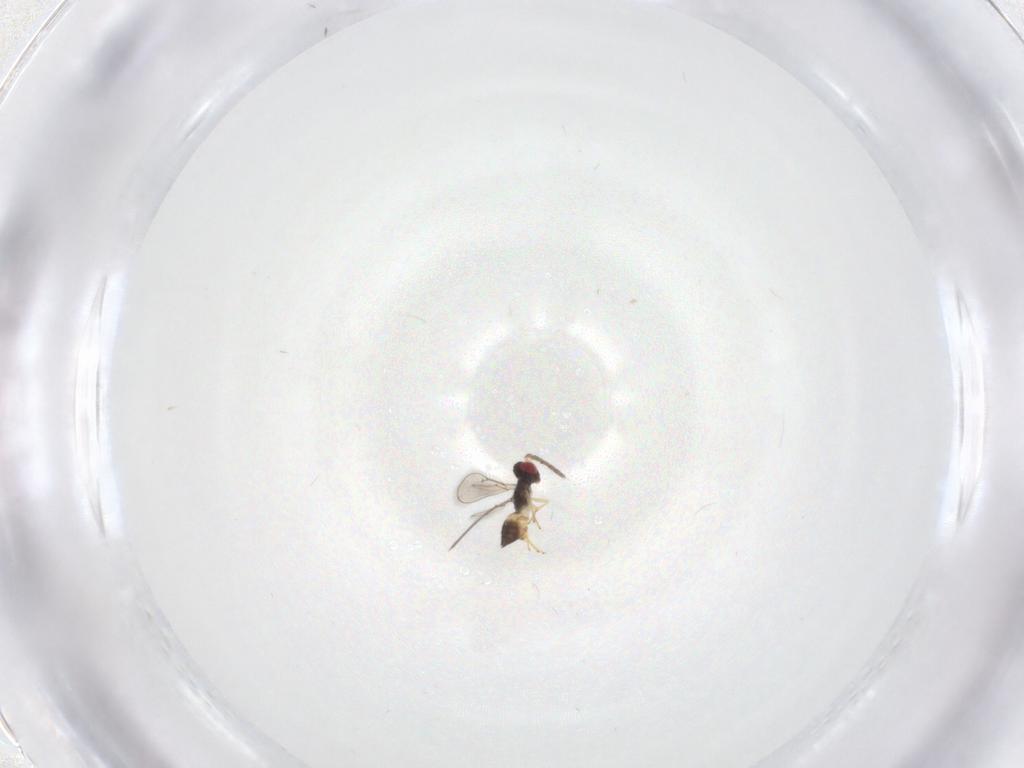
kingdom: Animalia
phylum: Arthropoda
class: Insecta
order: Hymenoptera
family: Eulophidae
